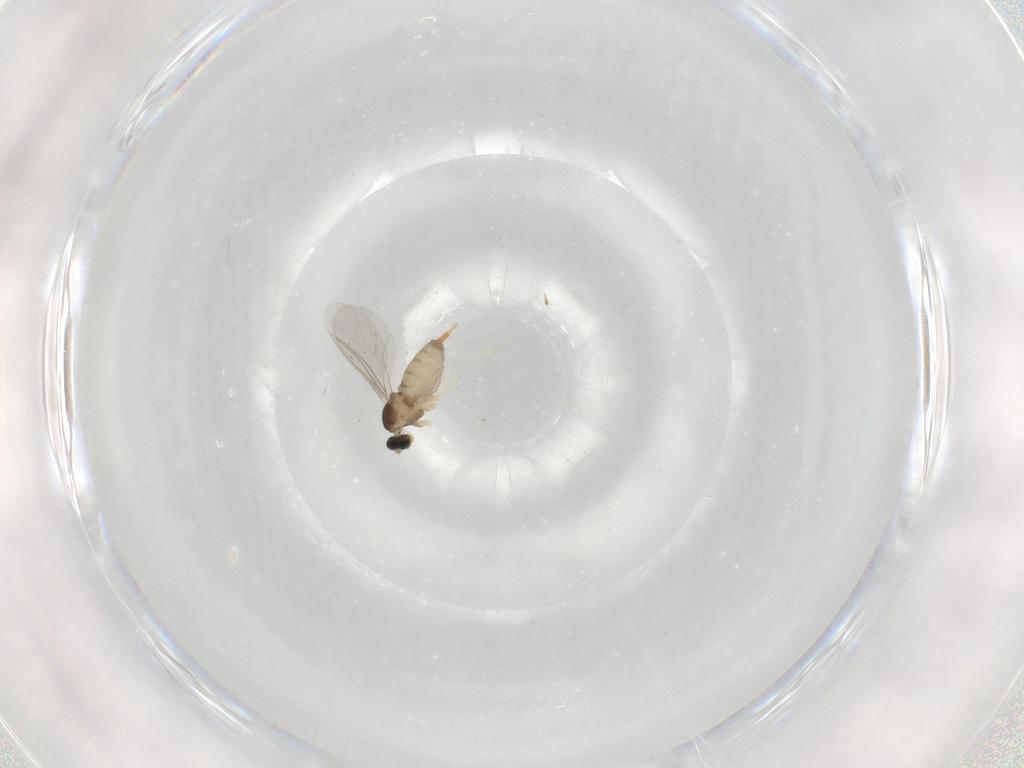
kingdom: Animalia
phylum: Arthropoda
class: Insecta
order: Diptera
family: Cecidomyiidae
